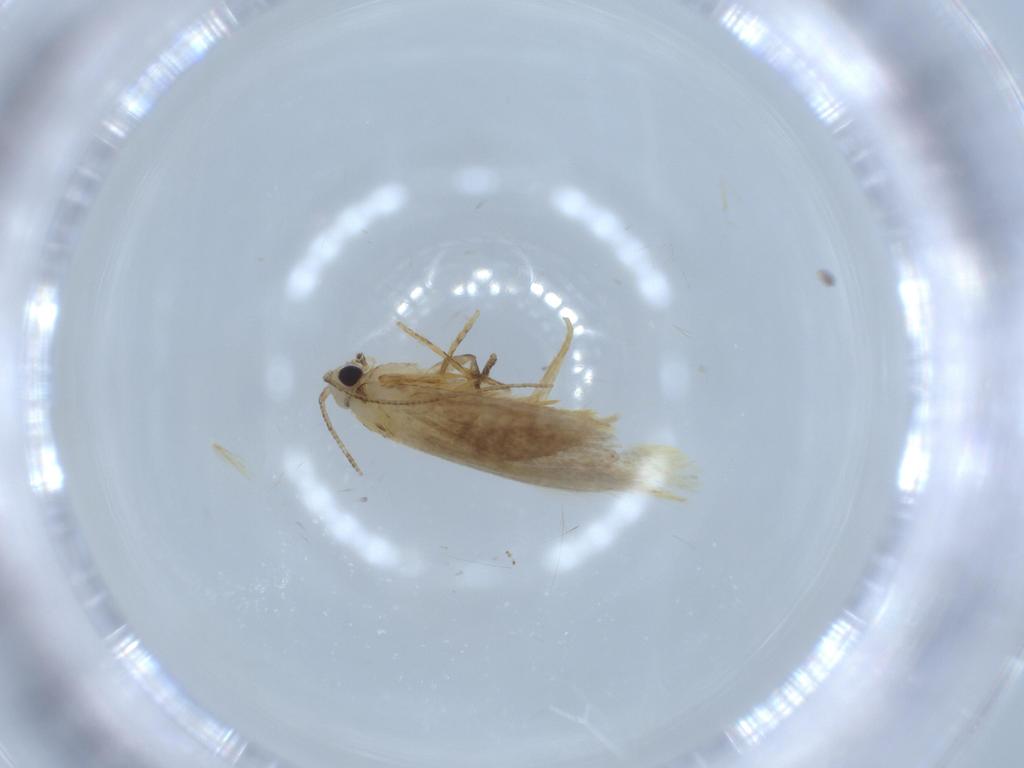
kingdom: Animalia
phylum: Arthropoda
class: Insecta
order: Lepidoptera
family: Tineidae
